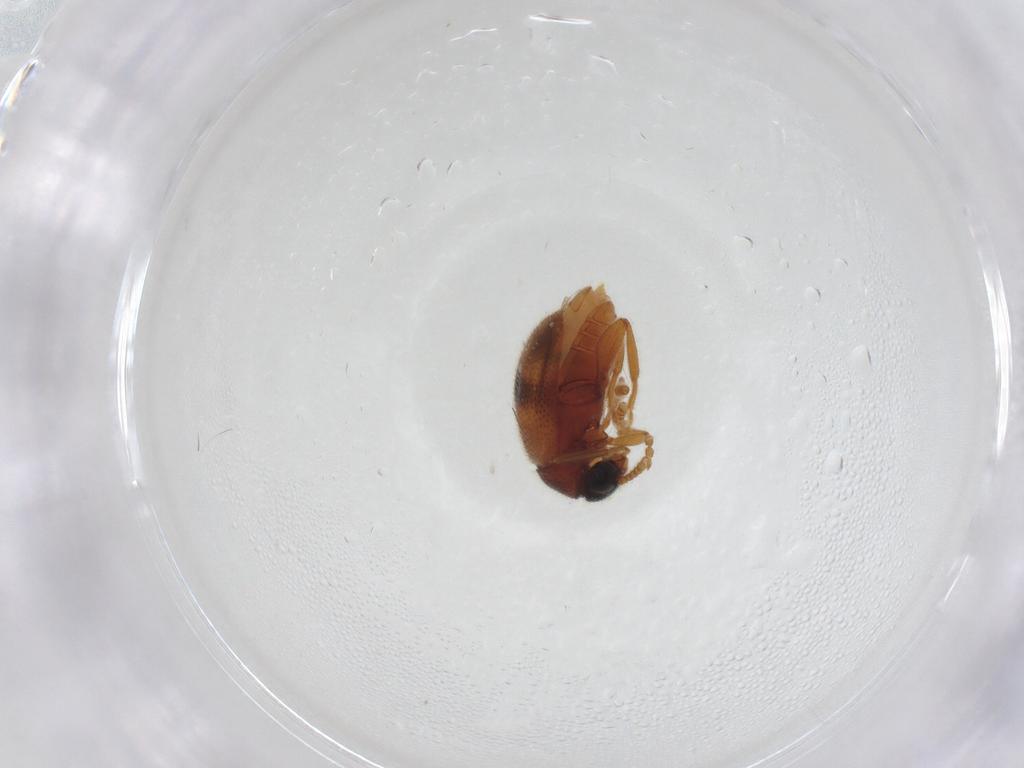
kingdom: Animalia
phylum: Arthropoda
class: Insecta
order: Coleoptera
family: Aderidae
